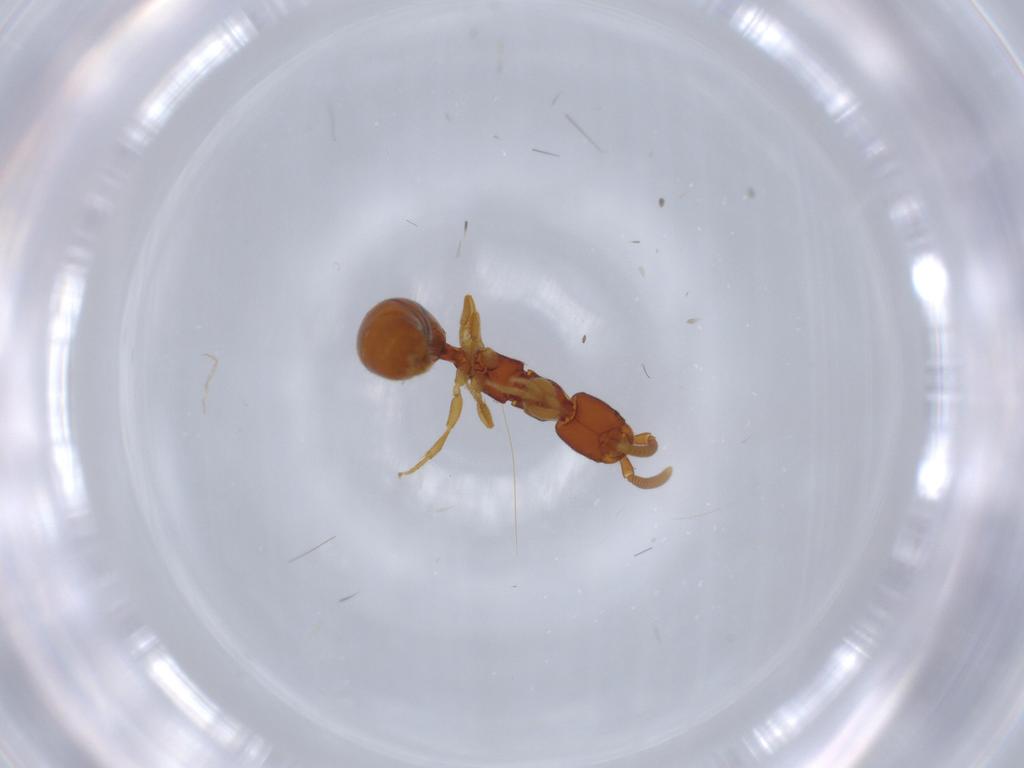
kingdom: Animalia
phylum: Arthropoda
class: Insecta
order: Hymenoptera
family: Bethylidae
